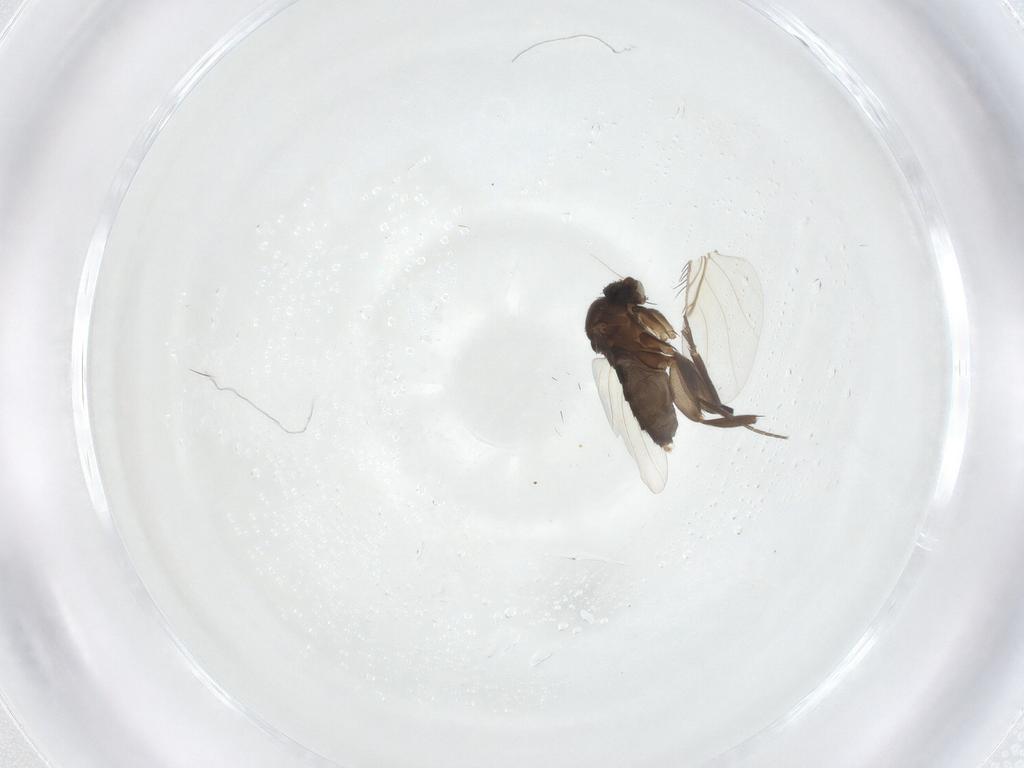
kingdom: Animalia
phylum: Arthropoda
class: Insecta
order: Diptera
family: Phoridae
